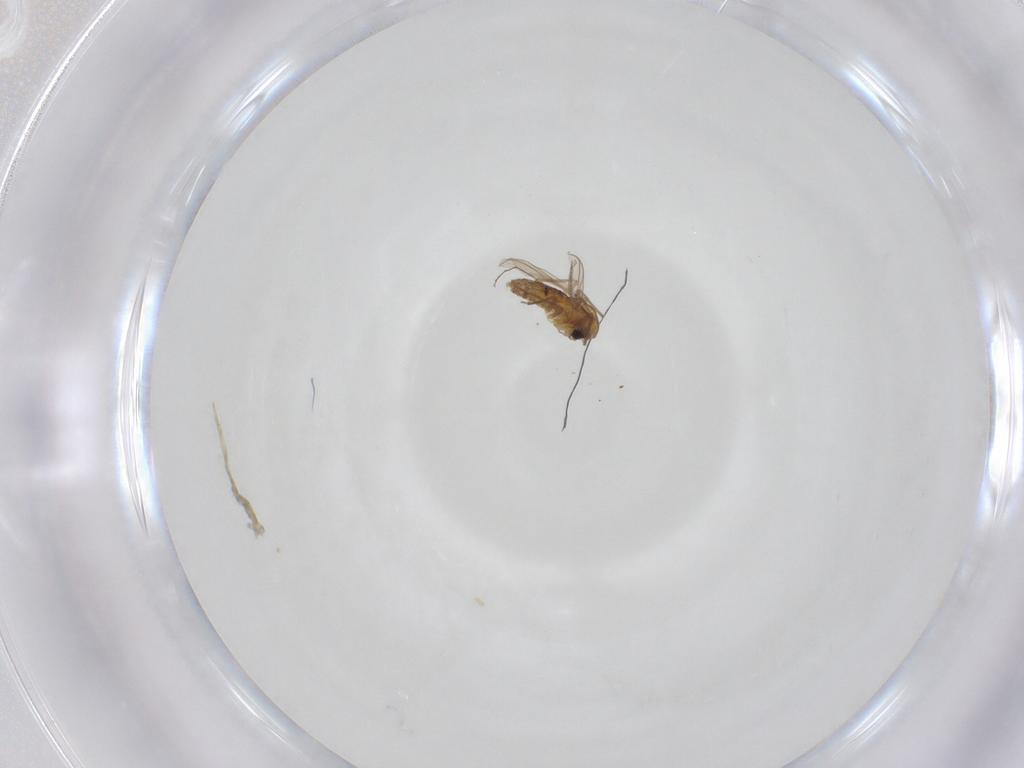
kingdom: Animalia
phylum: Arthropoda
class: Insecta
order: Diptera
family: Chironomidae
